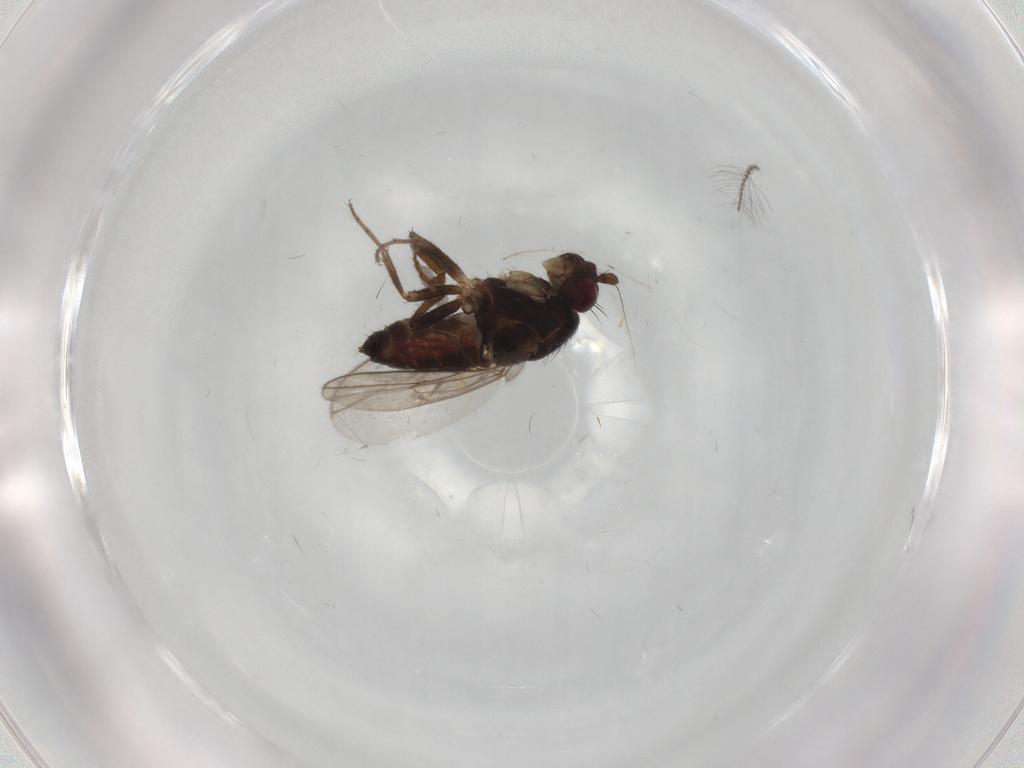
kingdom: Animalia
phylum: Arthropoda
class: Insecta
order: Diptera
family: Sphaeroceridae
